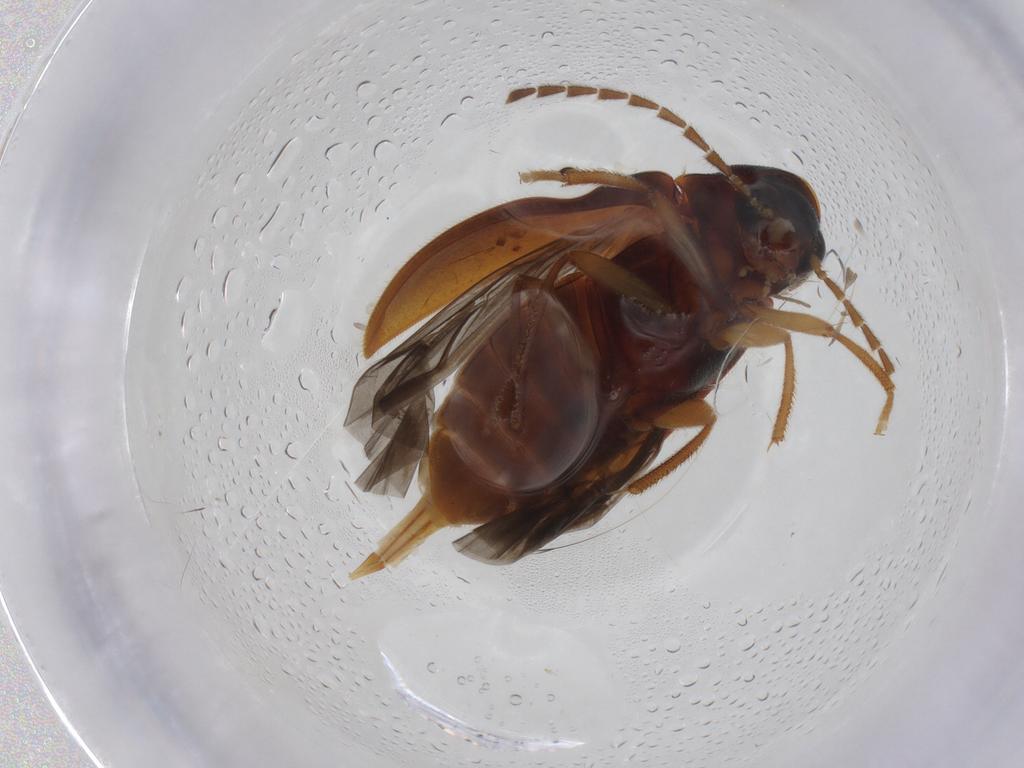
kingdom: Animalia
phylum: Arthropoda
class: Insecta
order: Coleoptera
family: Ptilodactylidae
